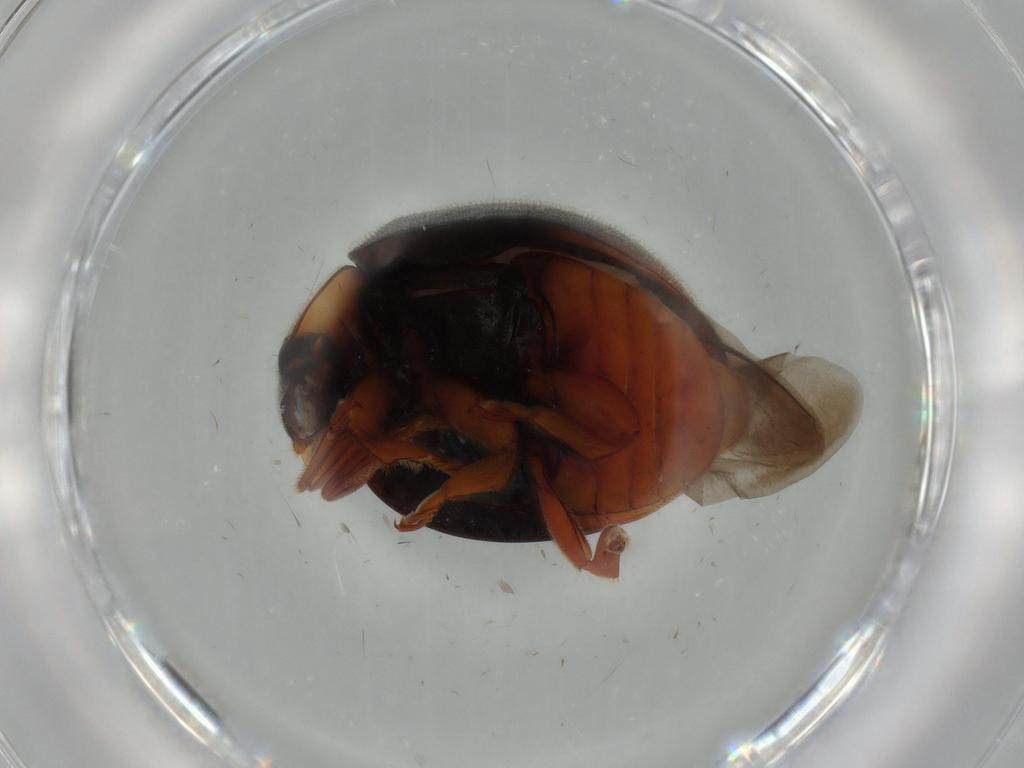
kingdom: Animalia
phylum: Arthropoda
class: Insecta
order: Coleoptera
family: Coccinellidae
